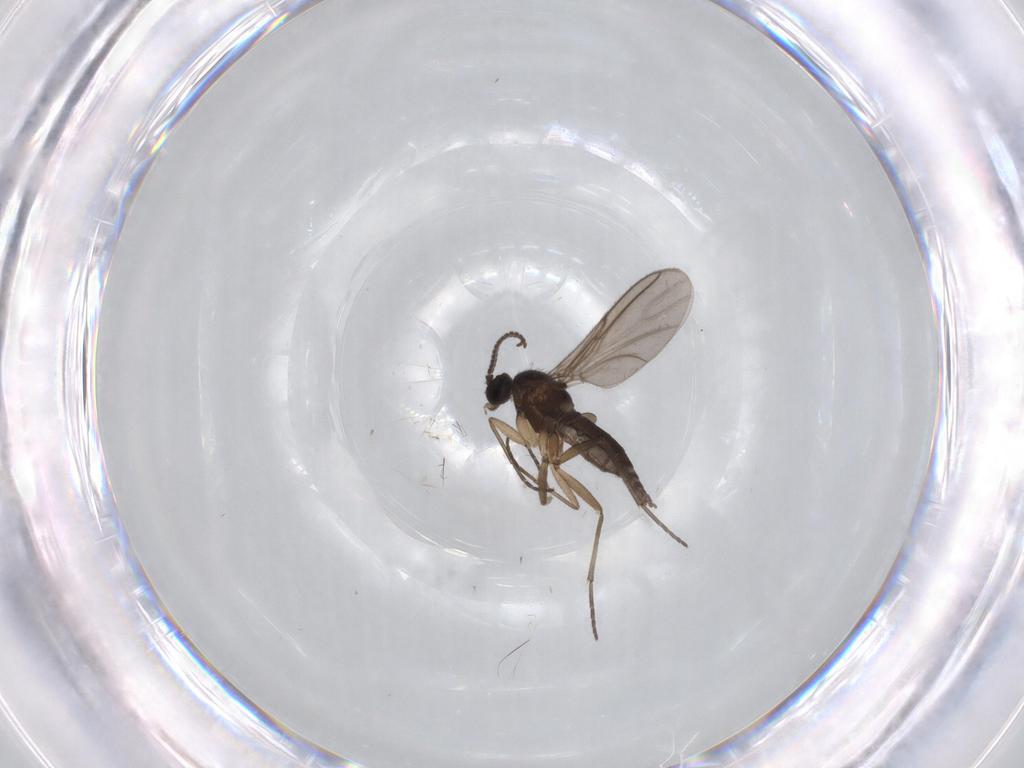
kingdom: Animalia
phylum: Arthropoda
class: Insecta
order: Diptera
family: Sciaridae
